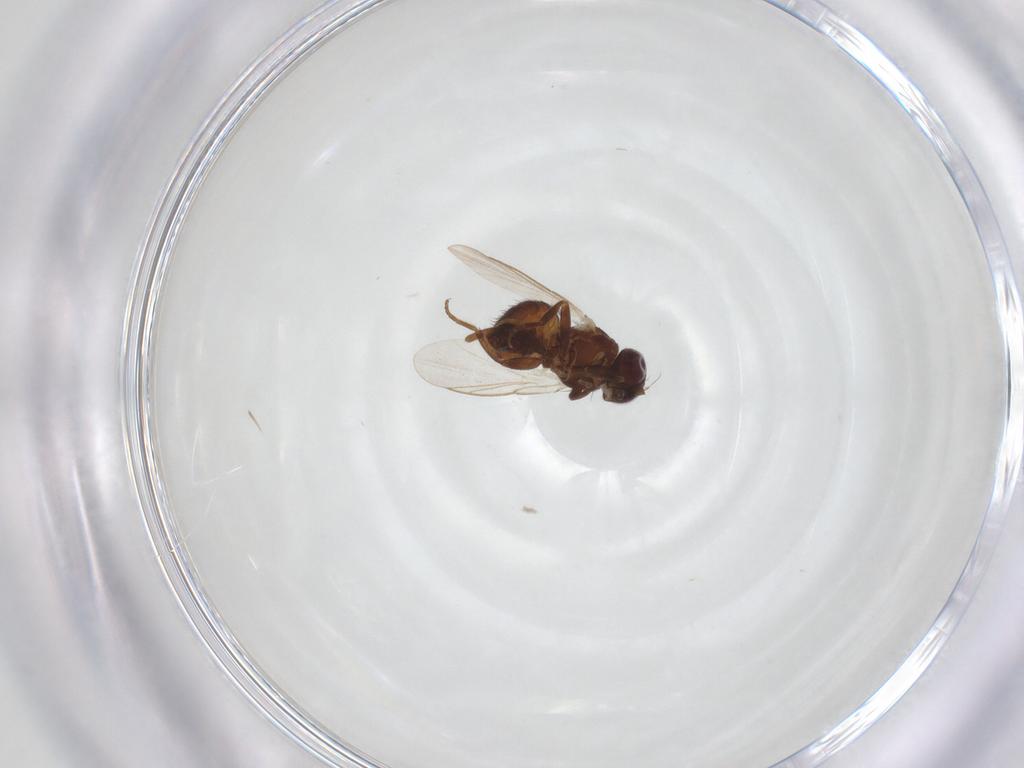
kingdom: Animalia
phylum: Arthropoda
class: Insecta
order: Diptera
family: Agromyzidae
